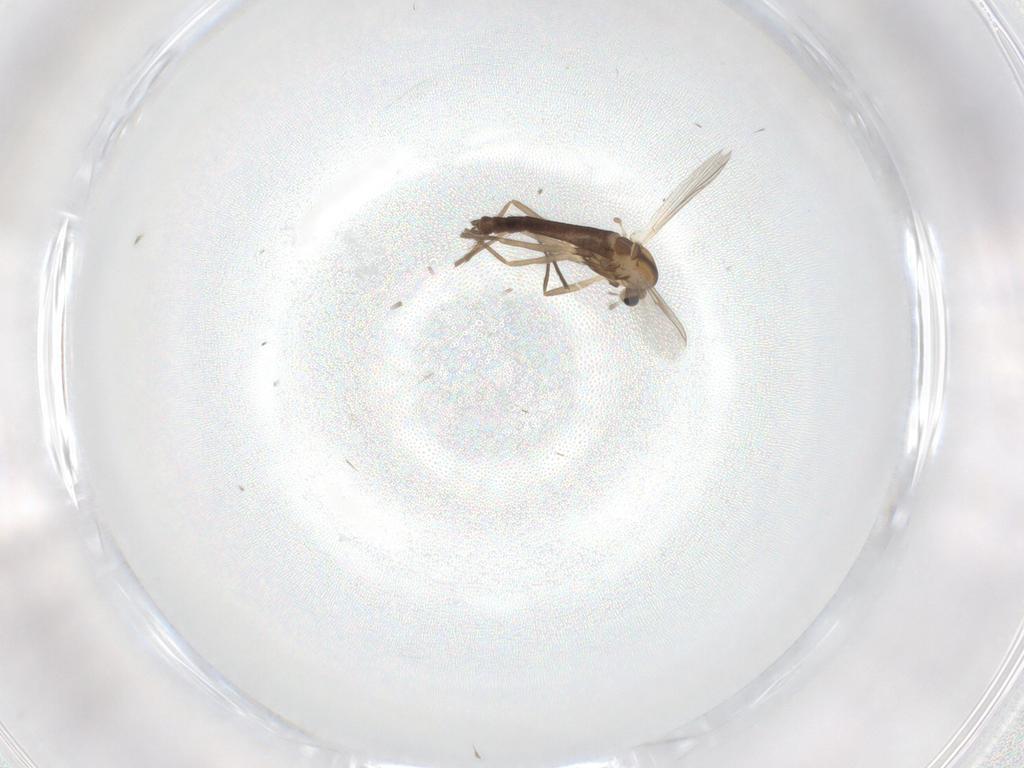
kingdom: Animalia
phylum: Arthropoda
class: Insecta
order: Diptera
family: Chironomidae
